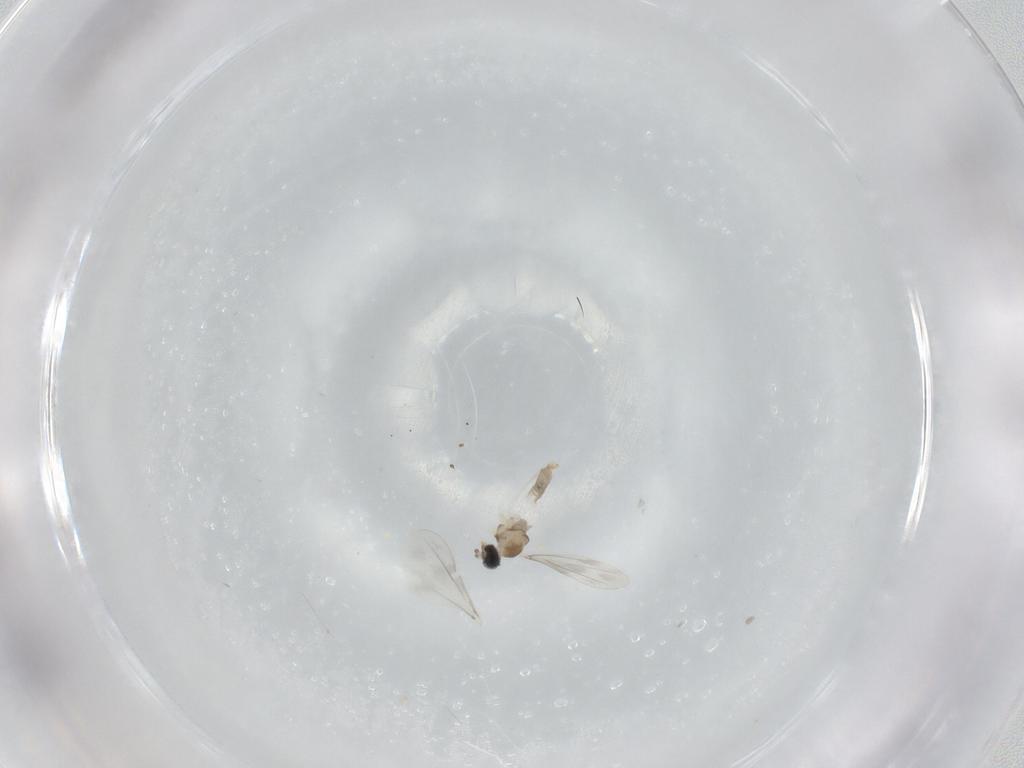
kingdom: Animalia
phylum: Arthropoda
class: Insecta
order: Diptera
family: Cecidomyiidae
